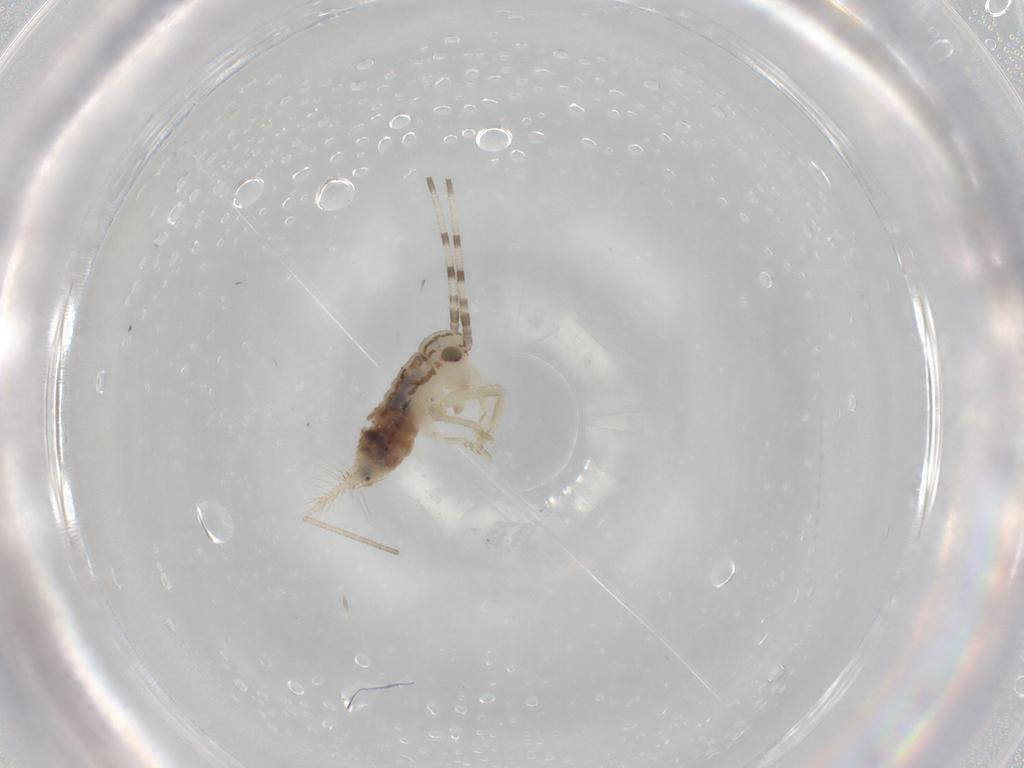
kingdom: Animalia
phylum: Arthropoda
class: Insecta
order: Orthoptera
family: Trigonidiidae
